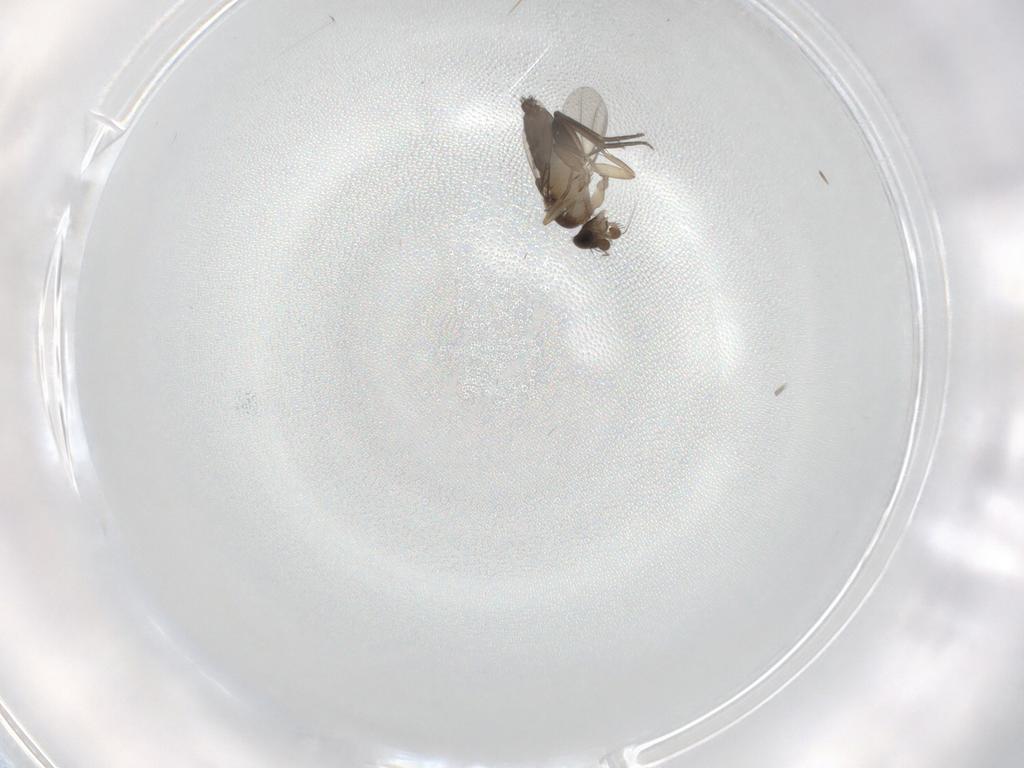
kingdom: Animalia
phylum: Arthropoda
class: Insecta
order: Diptera
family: Phoridae
